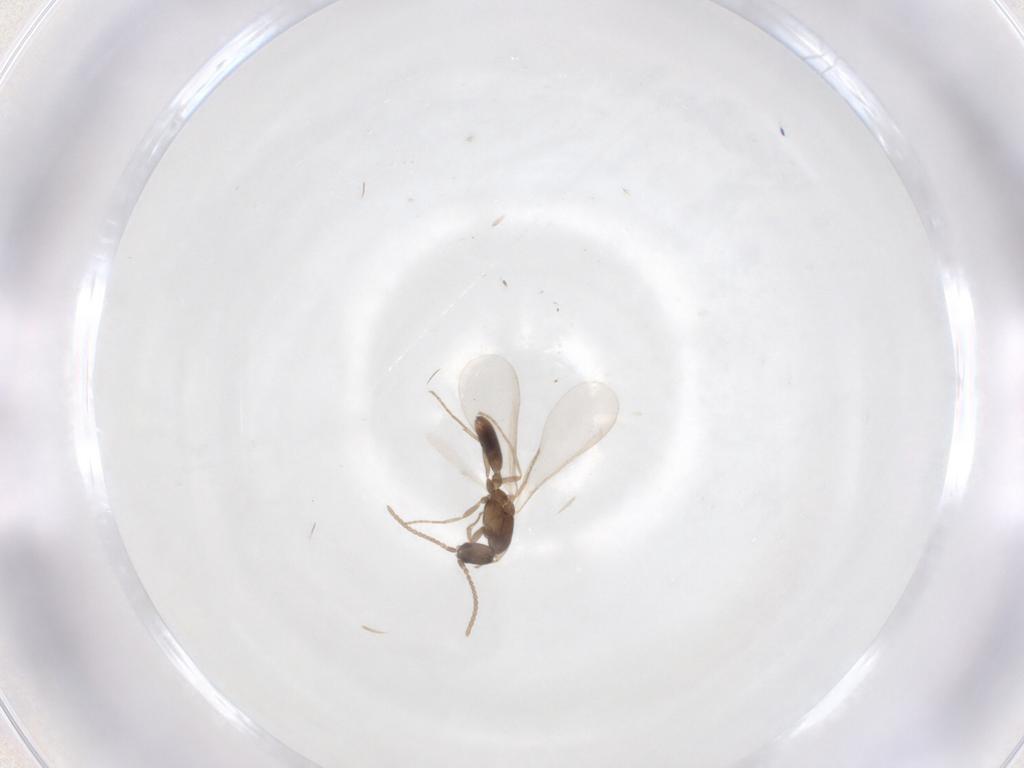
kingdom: Animalia
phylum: Arthropoda
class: Insecta
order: Hymenoptera
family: Formicidae
